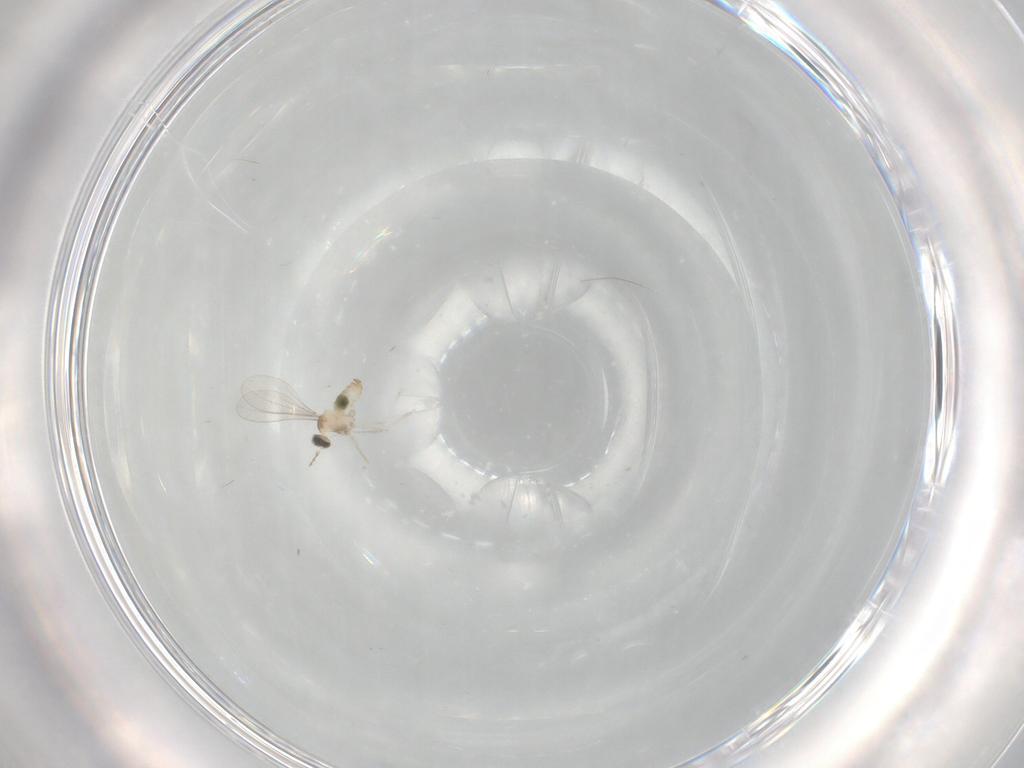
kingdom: Animalia
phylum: Arthropoda
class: Insecta
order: Diptera
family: Cecidomyiidae
